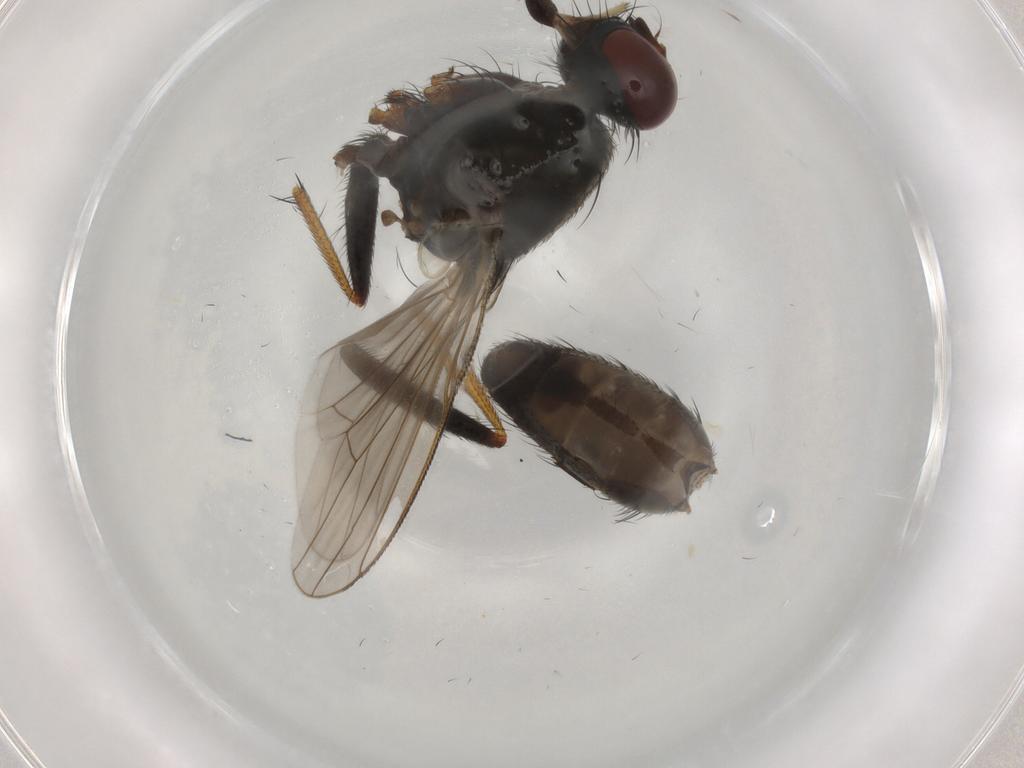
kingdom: Animalia
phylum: Arthropoda
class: Insecta
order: Diptera
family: Muscidae
